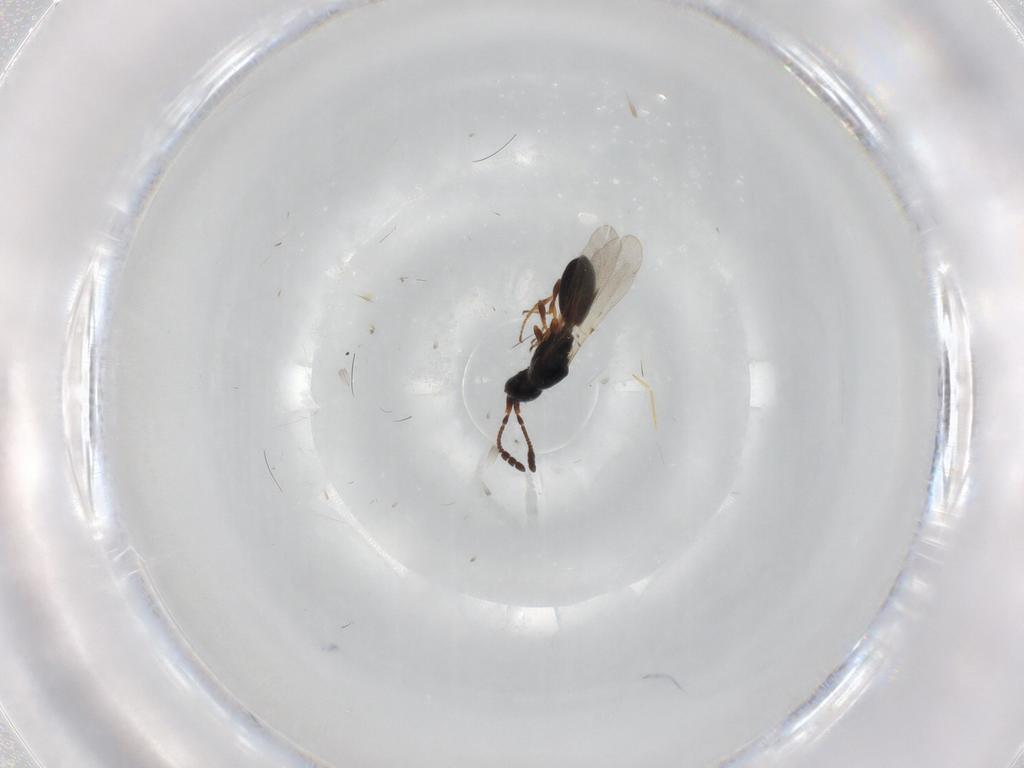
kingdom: Animalia
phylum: Arthropoda
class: Insecta
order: Hymenoptera
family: Diapriidae
